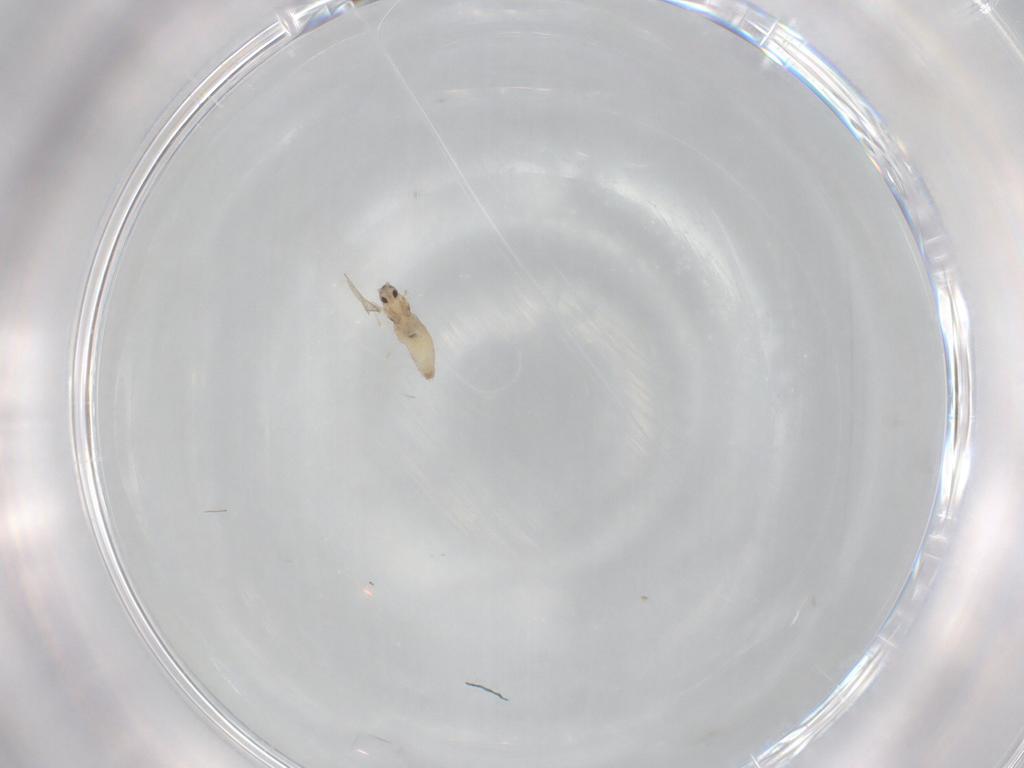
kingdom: Animalia
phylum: Arthropoda
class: Insecta
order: Diptera
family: Cecidomyiidae
